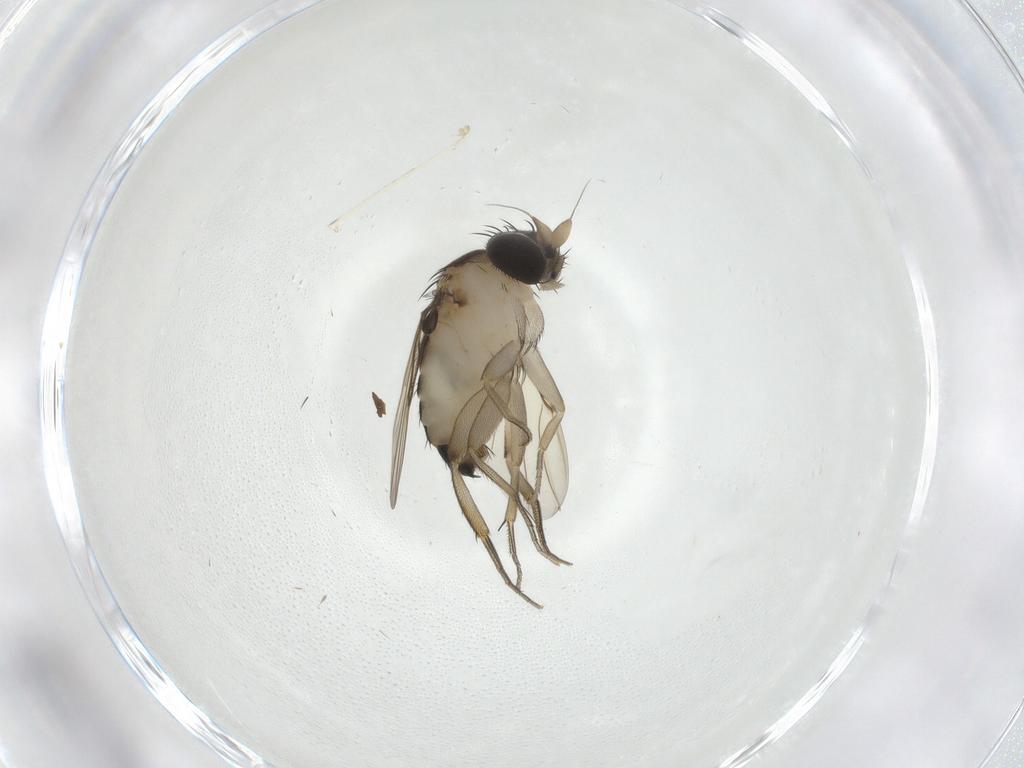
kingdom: Animalia
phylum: Arthropoda
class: Insecta
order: Diptera
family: Phoridae
